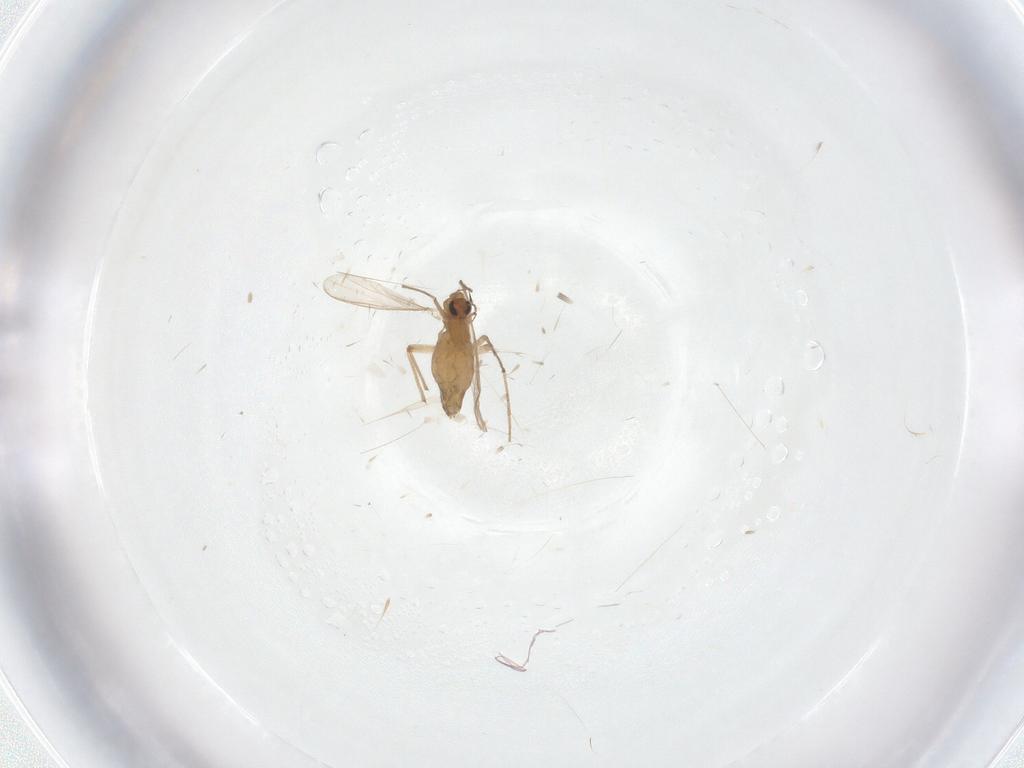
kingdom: Animalia
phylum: Arthropoda
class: Insecta
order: Diptera
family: Chironomidae
